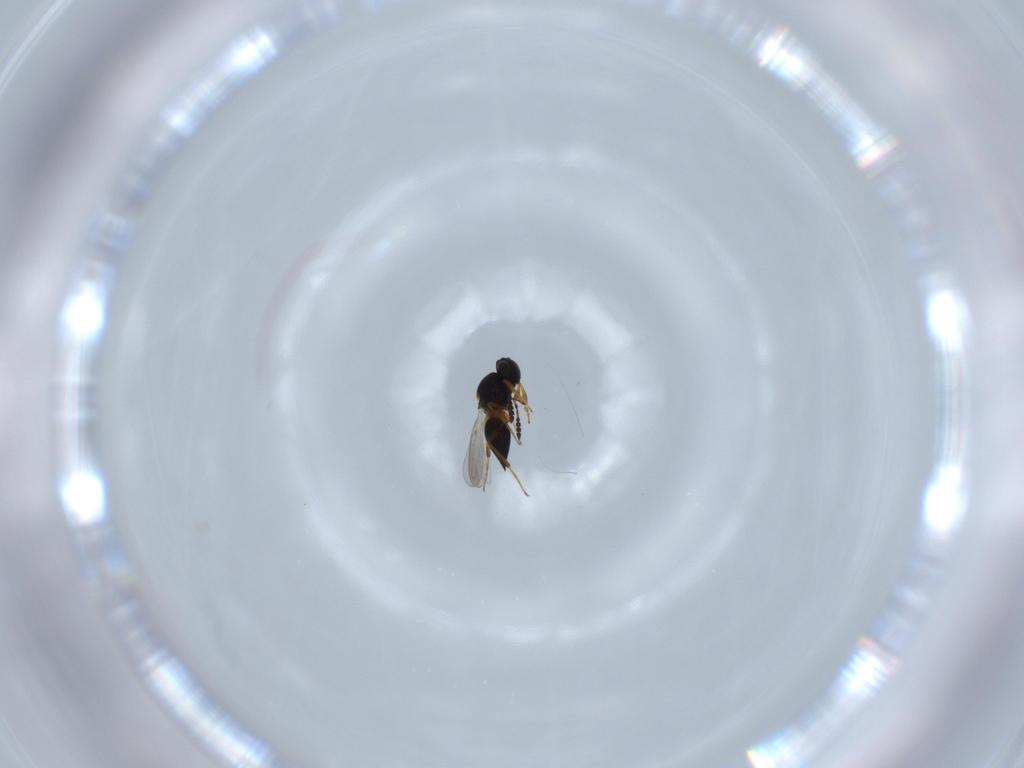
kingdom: Animalia
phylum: Arthropoda
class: Insecta
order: Hymenoptera
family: Platygastridae
